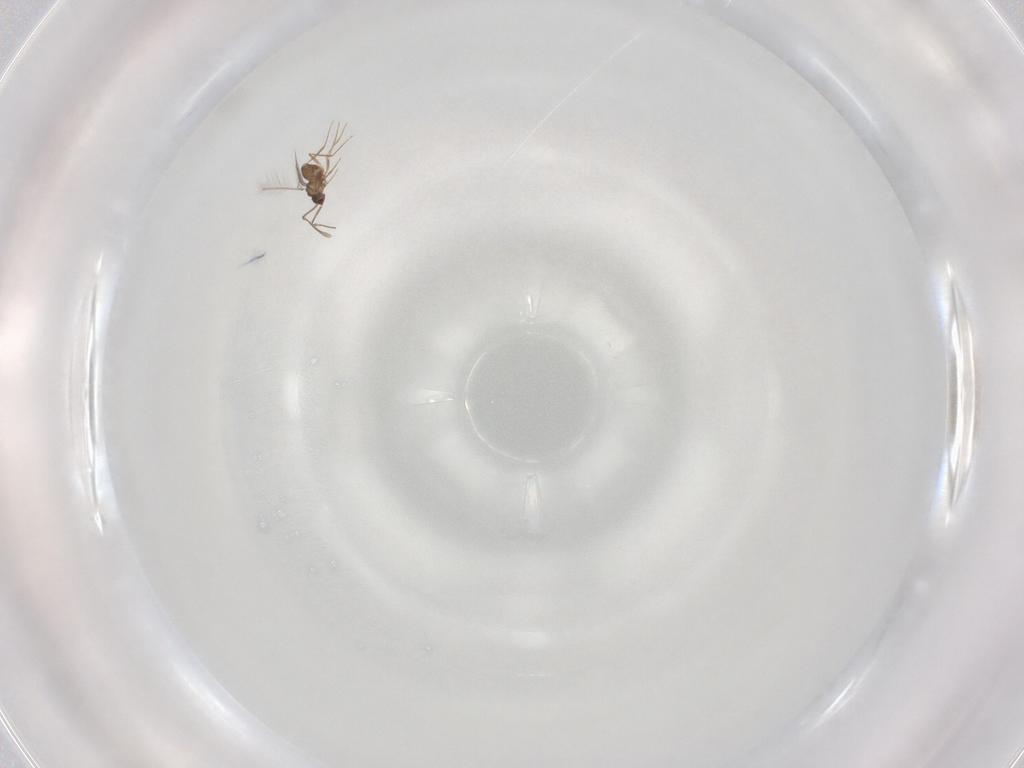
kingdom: Animalia
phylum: Arthropoda
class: Insecta
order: Hymenoptera
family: Mymaridae
